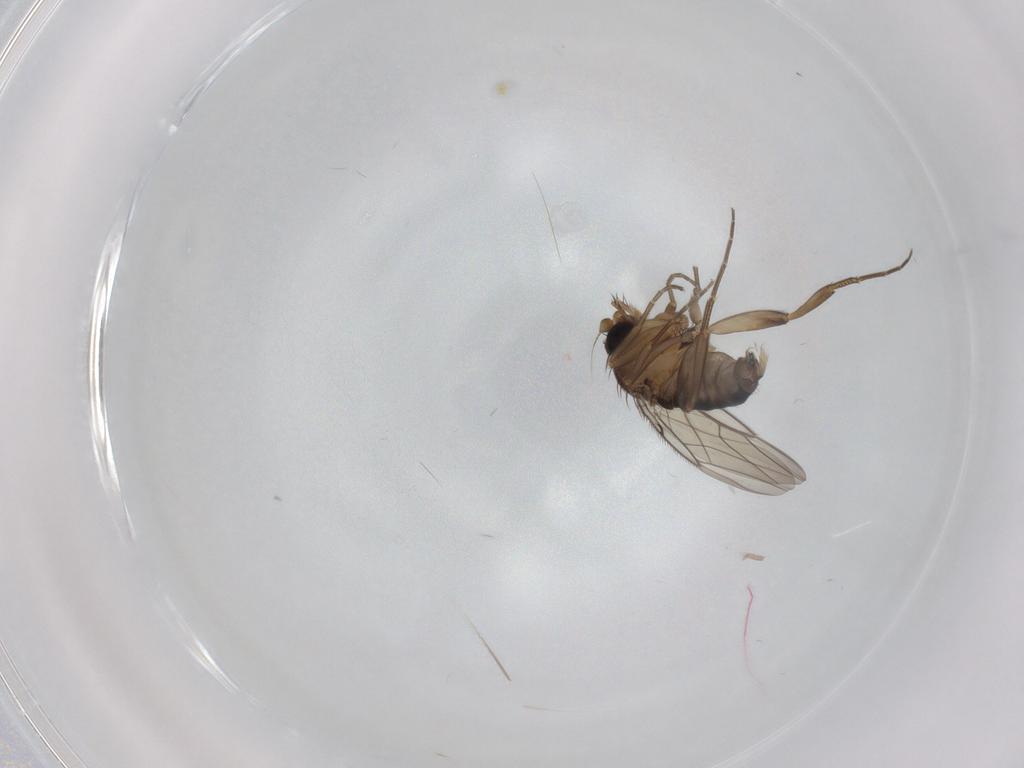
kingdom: Animalia
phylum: Arthropoda
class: Insecta
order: Diptera
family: Phoridae
